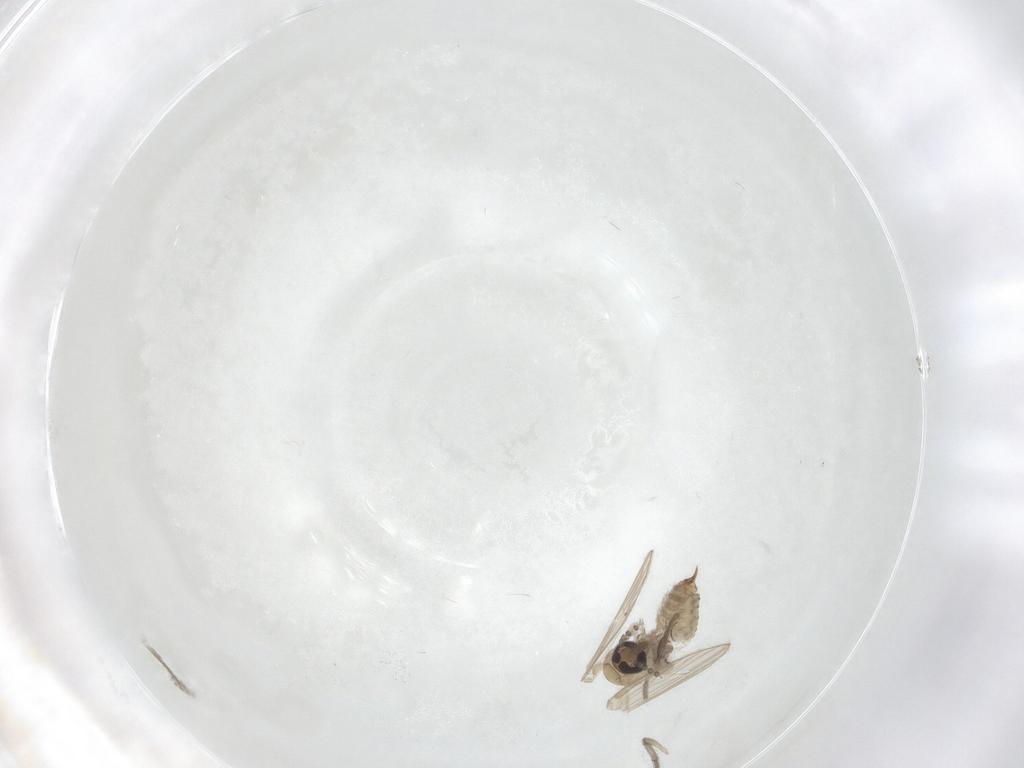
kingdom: Animalia
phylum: Arthropoda
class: Insecta
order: Diptera
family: Psychodidae
